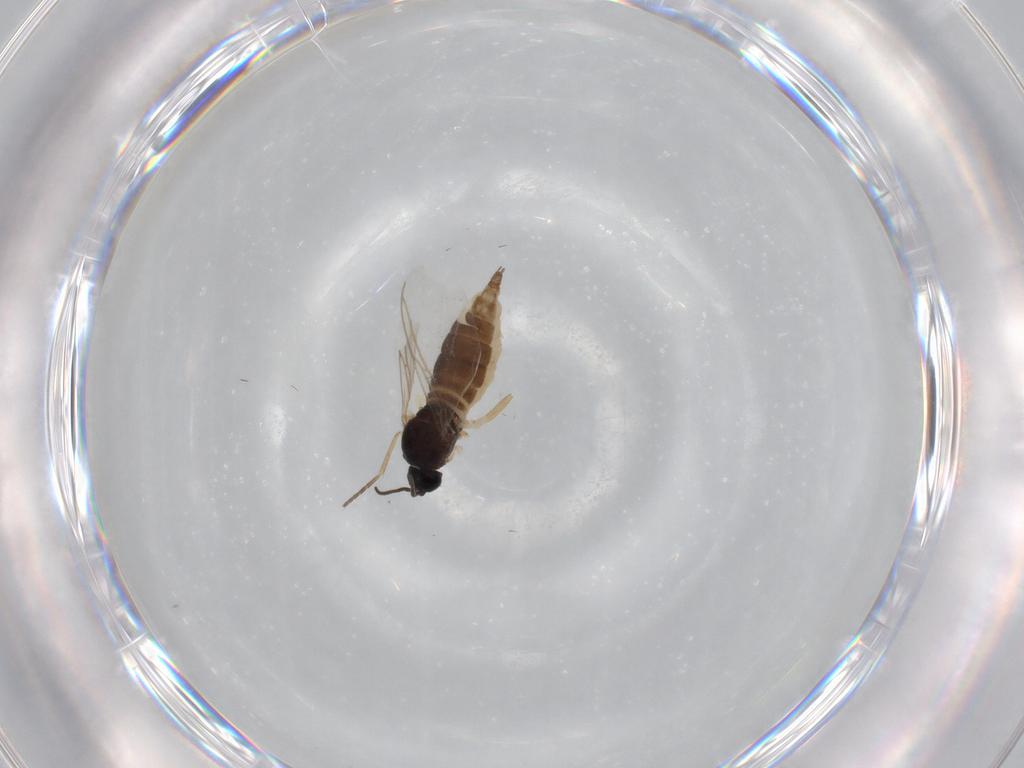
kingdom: Animalia
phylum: Arthropoda
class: Insecta
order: Diptera
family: Sciaridae
